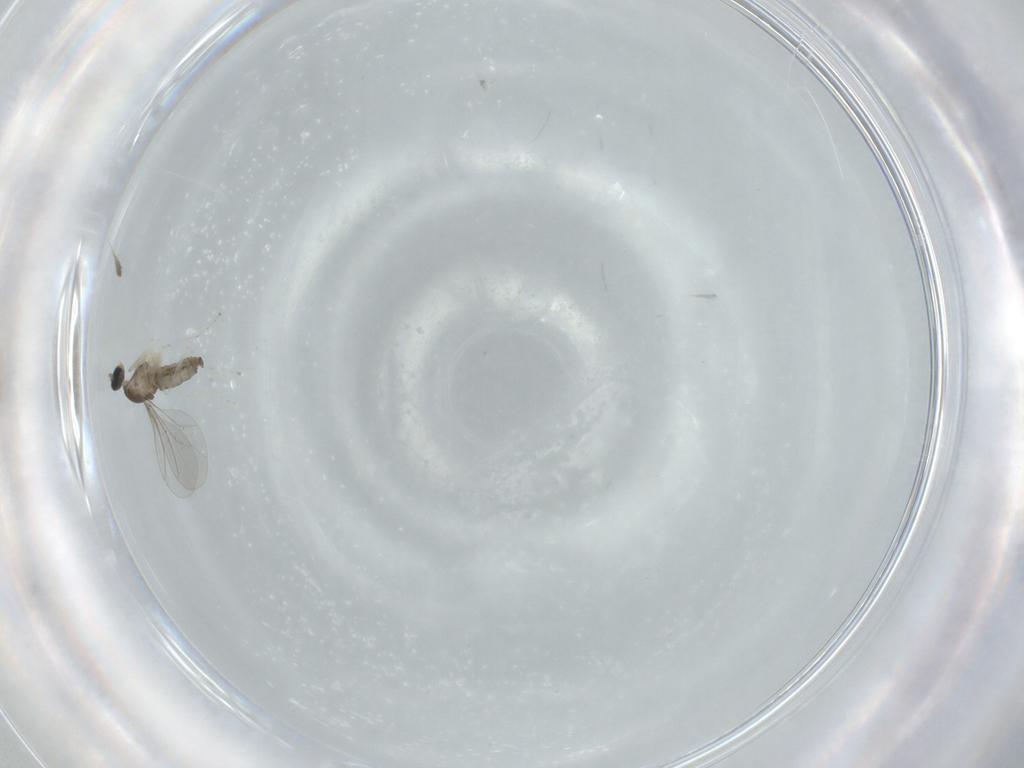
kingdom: Animalia
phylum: Arthropoda
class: Insecta
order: Diptera
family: Cecidomyiidae
